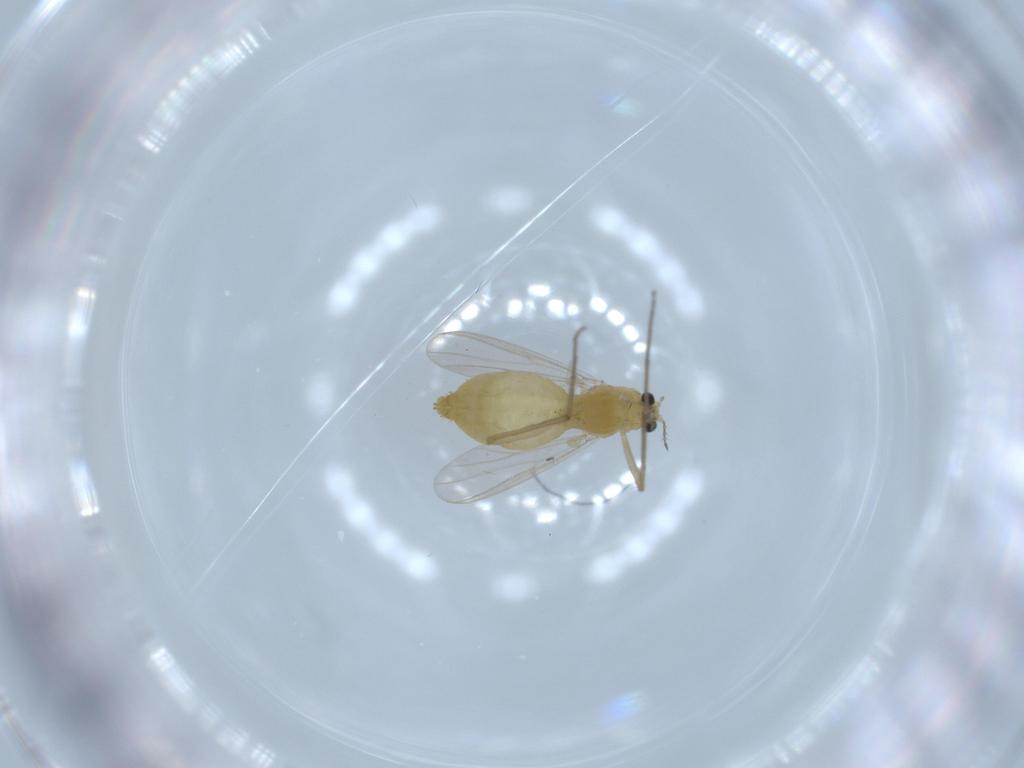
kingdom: Animalia
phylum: Arthropoda
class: Insecta
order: Diptera
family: Chironomidae
